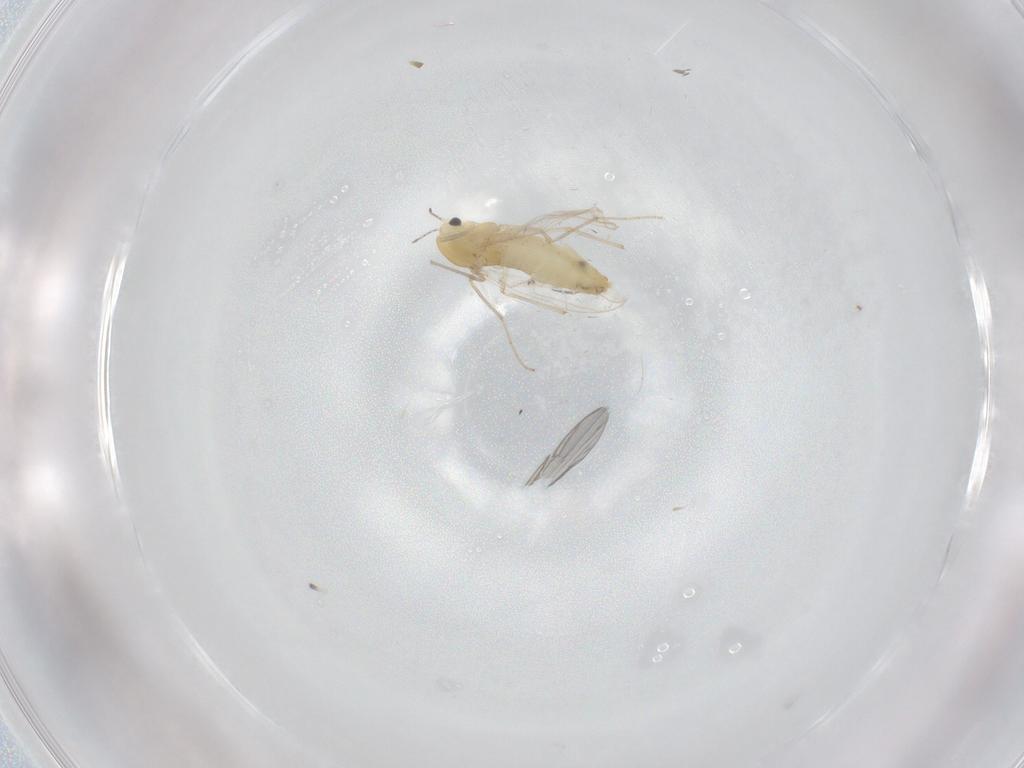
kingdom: Animalia
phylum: Arthropoda
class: Insecta
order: Diptera
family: Chironomidae
